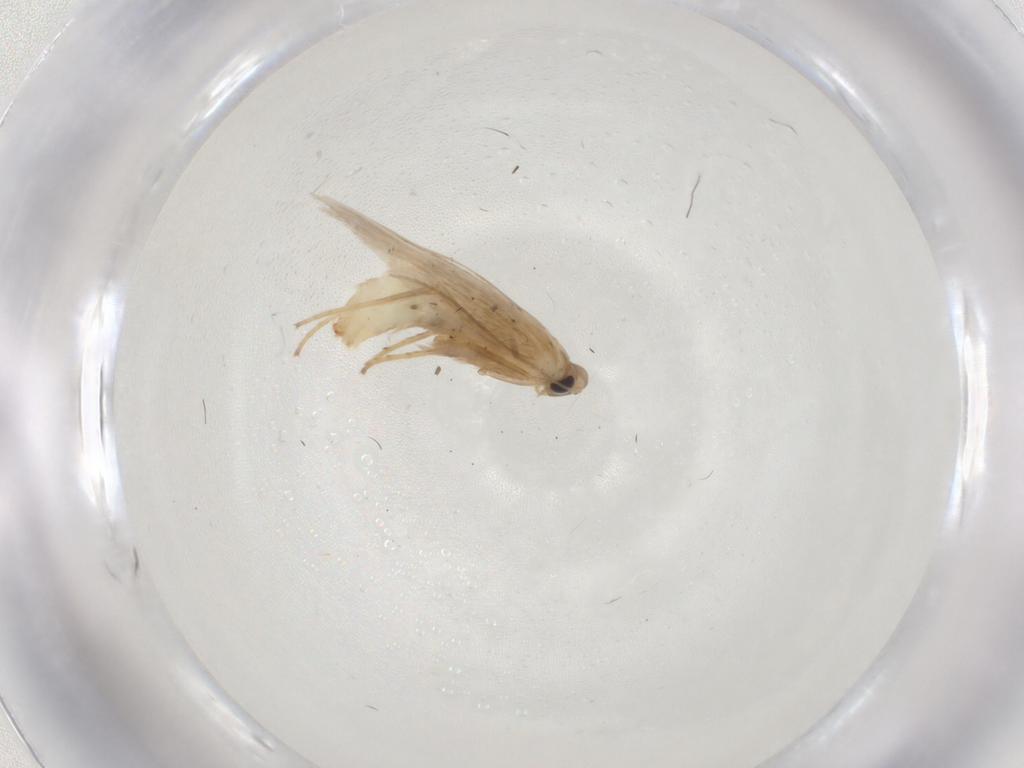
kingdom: Animalia
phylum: Arthropoda
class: Insecta
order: Lepidoptera
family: Tischeriidae
